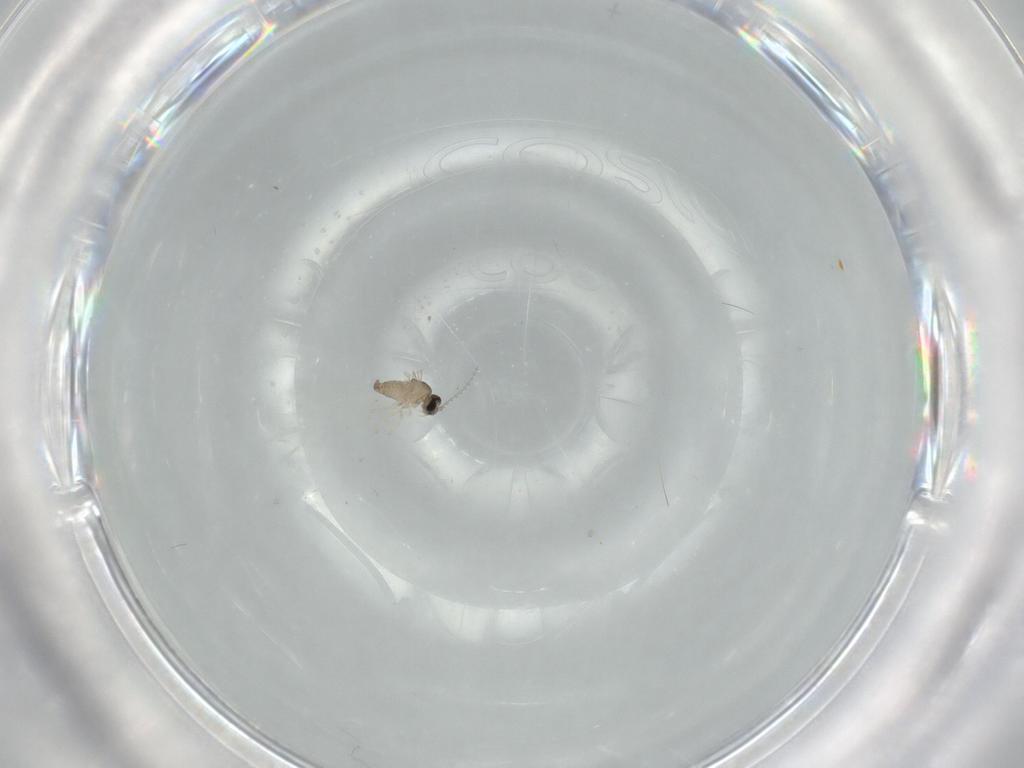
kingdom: Animalia
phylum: Arthropoda
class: Insecta
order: Diptera
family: Cecidomyiidae
